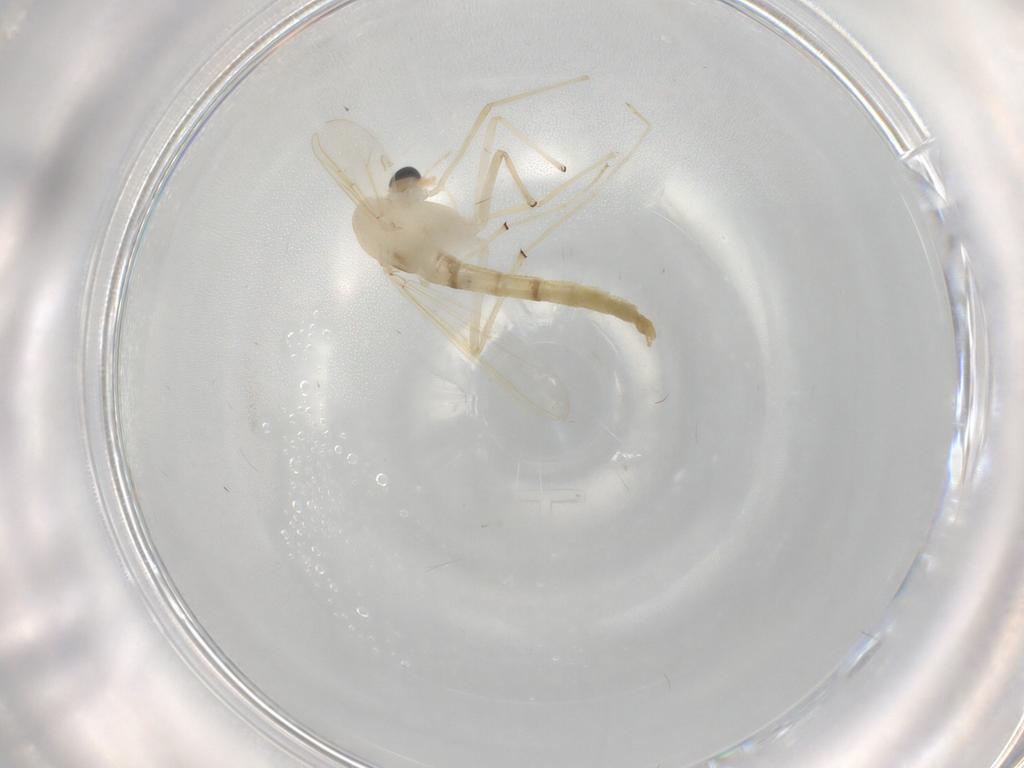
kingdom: Animalia
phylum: Arthropoda
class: Insecta
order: Diptera
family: Chironomidae
